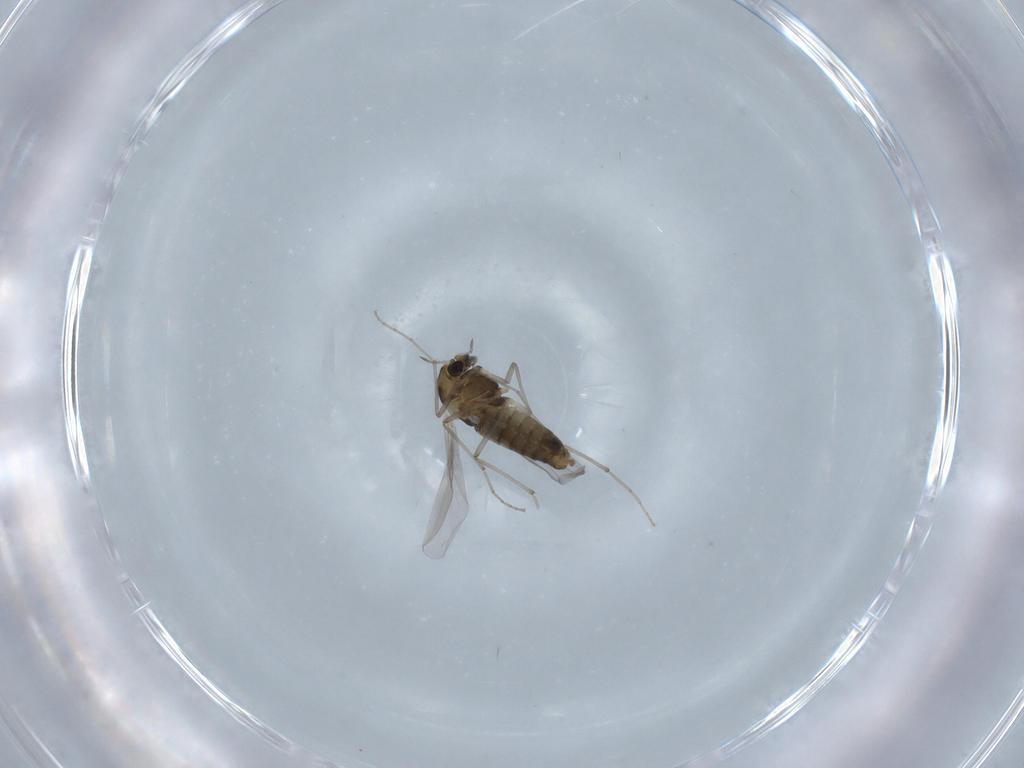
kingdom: Animalia
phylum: Arthropoda
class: Insecta
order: Diptera
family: Chironomidae
